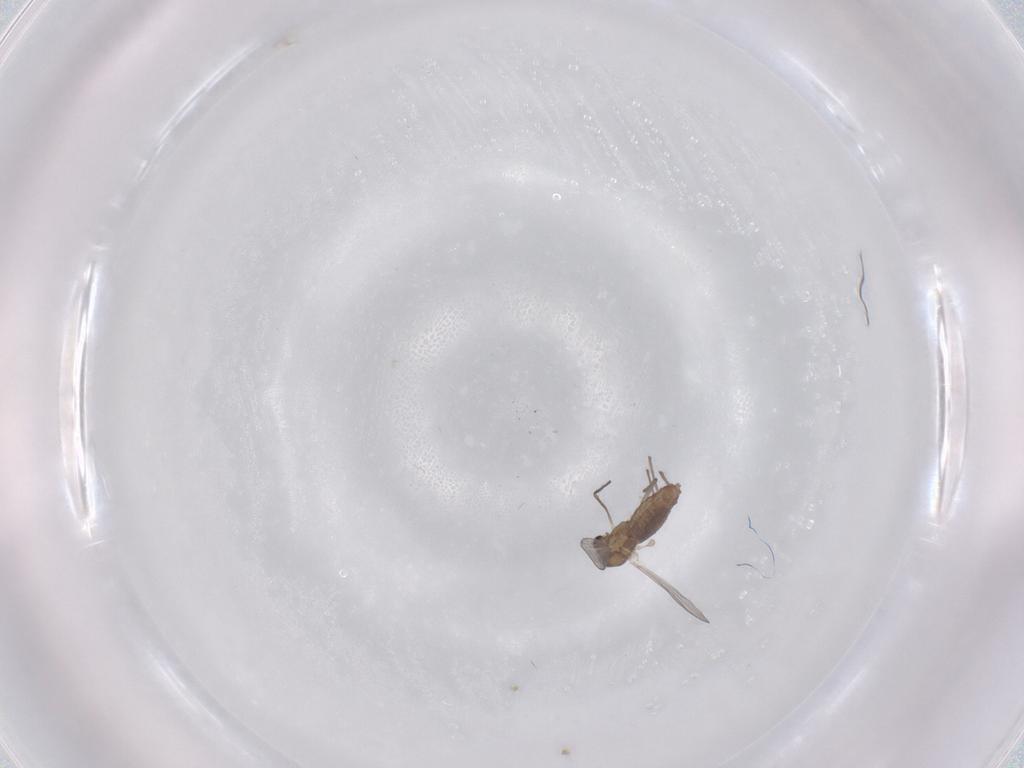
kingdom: Animalia
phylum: Arthropoda
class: Insecta
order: Diptera
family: Chironomidae
